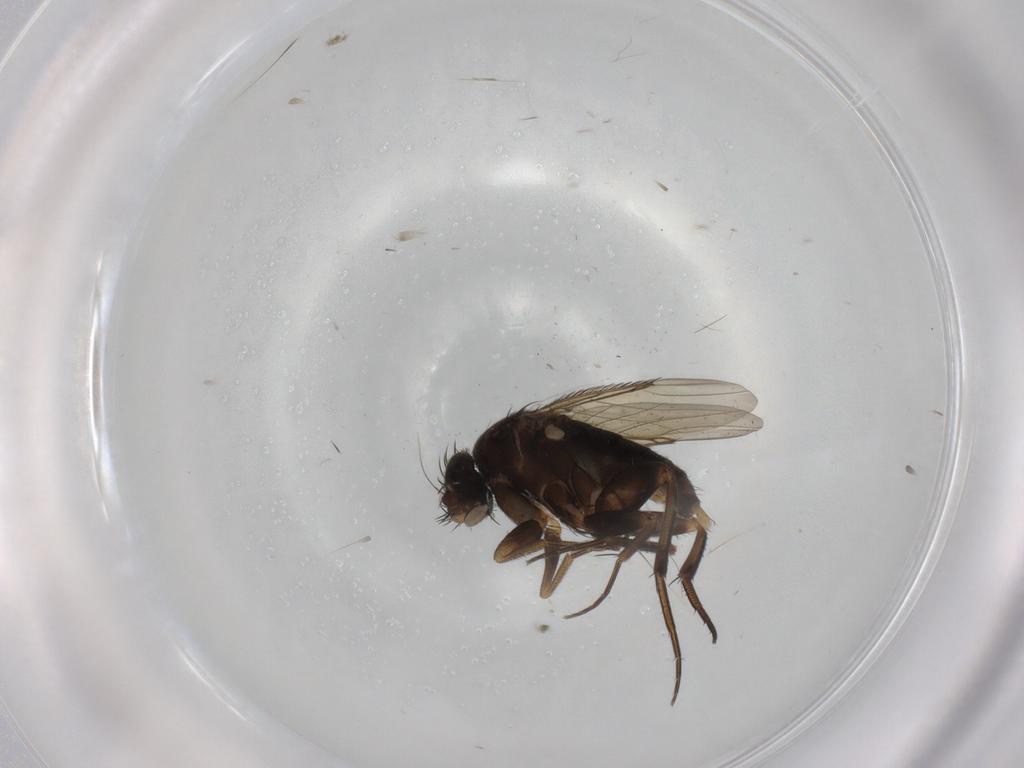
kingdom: Animalia
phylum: Arthropoda
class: Insecta
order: Diptera
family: Phoridae
